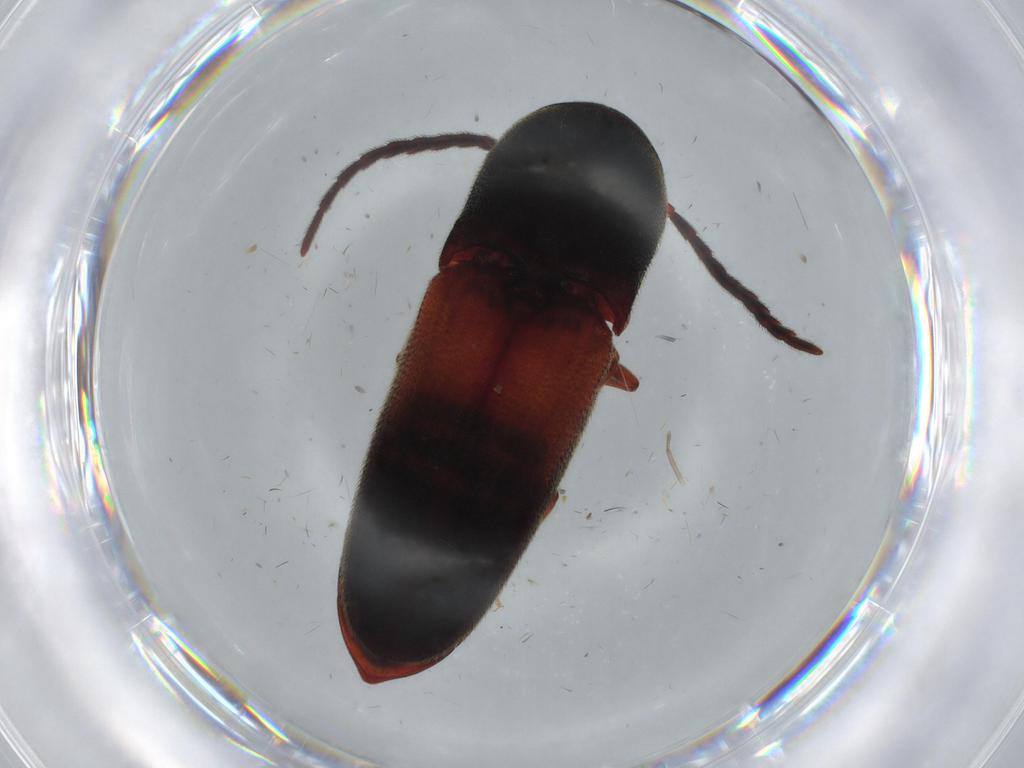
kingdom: Animalia
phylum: Arthropoda
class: Insecta
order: Coleoptera
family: Eucnemidae
